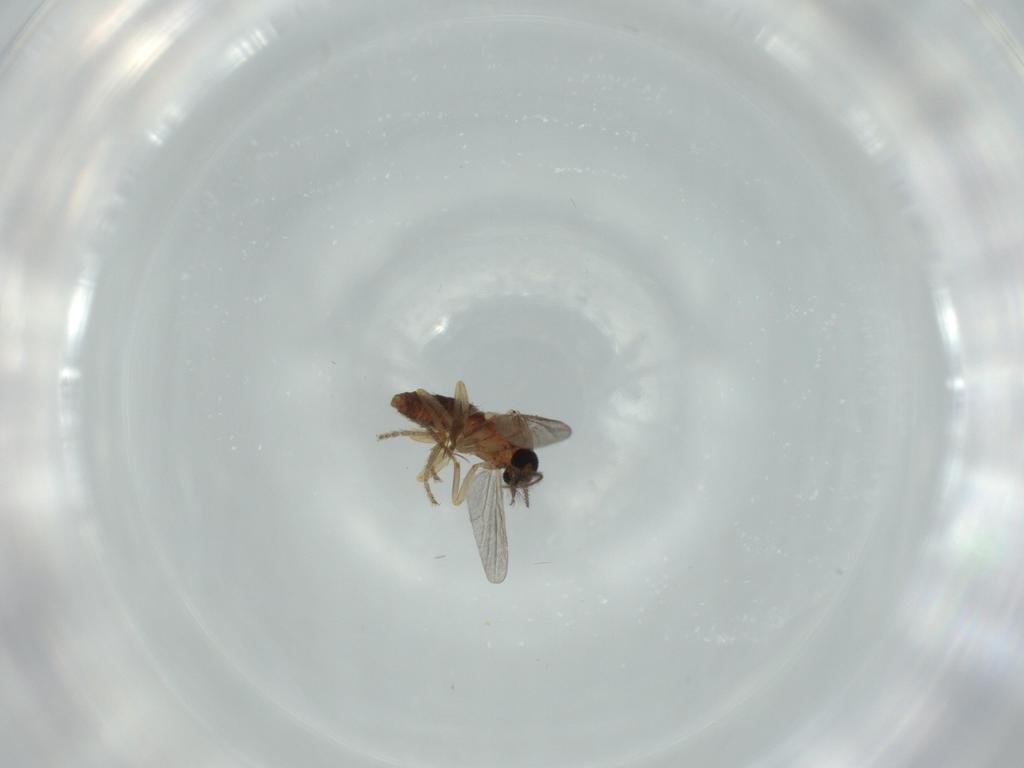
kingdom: Animalia
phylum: Arthropoda
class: Insecta
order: Diptera
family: Ceratopogonidae
